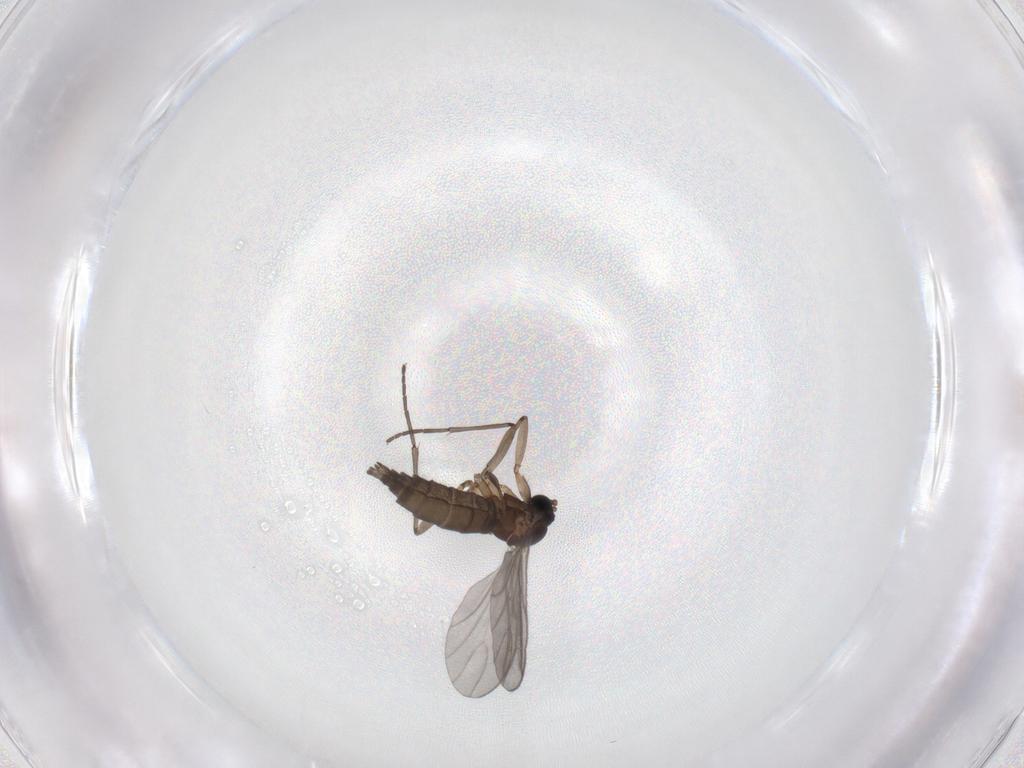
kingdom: Animalia
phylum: Arthropoda
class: Insecta
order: Diptera
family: Sciaridae
